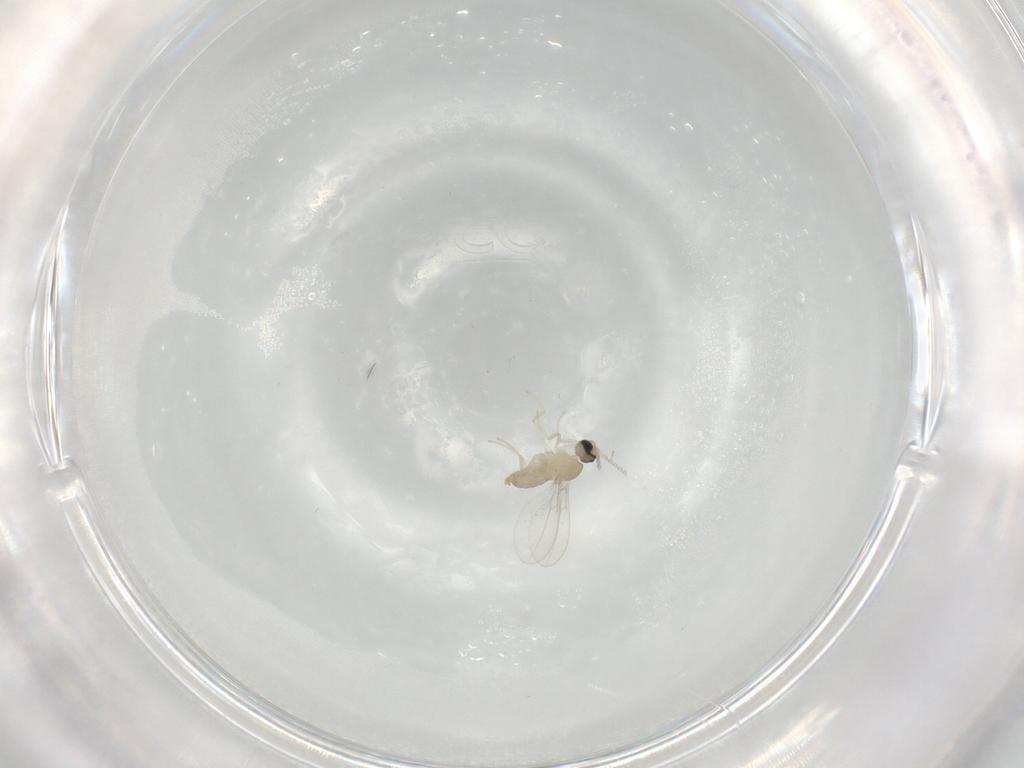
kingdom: Animalia
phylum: Arthropoda
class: Insecta
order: Diptera
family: Cecidomyiidae
